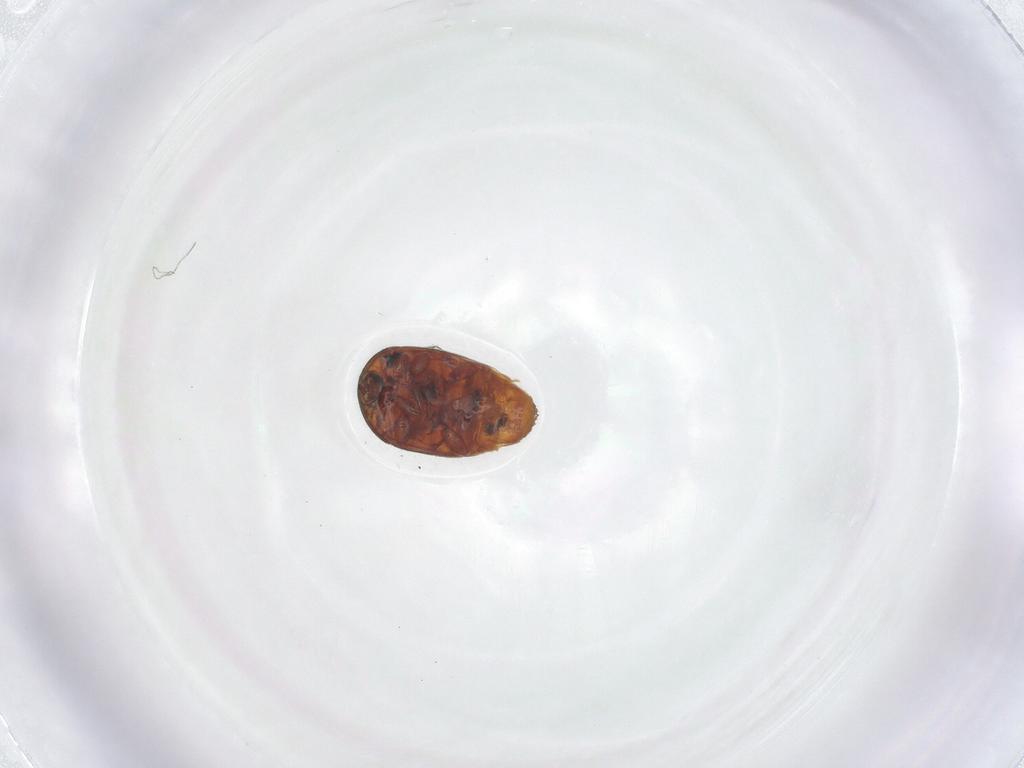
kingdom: Animalia
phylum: Arthropoda
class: Insecta
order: Coleoptera
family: Corylophidae
